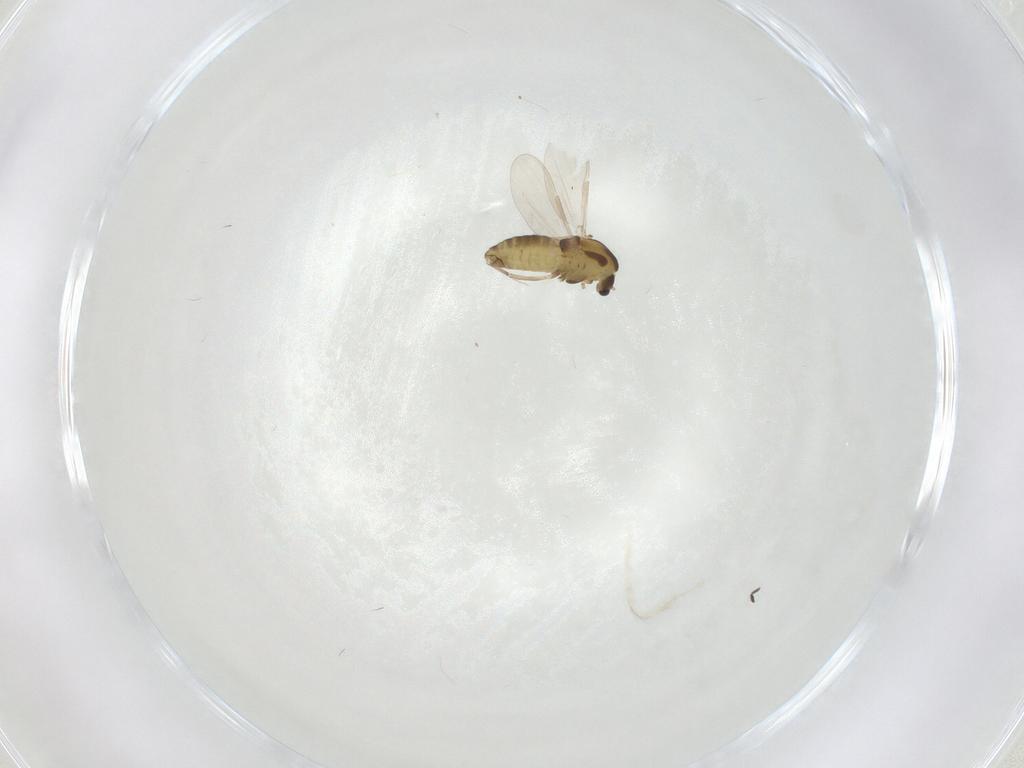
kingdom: Animalia
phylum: Arthropoda
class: Insecta
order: Diptera
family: Chironomidae
